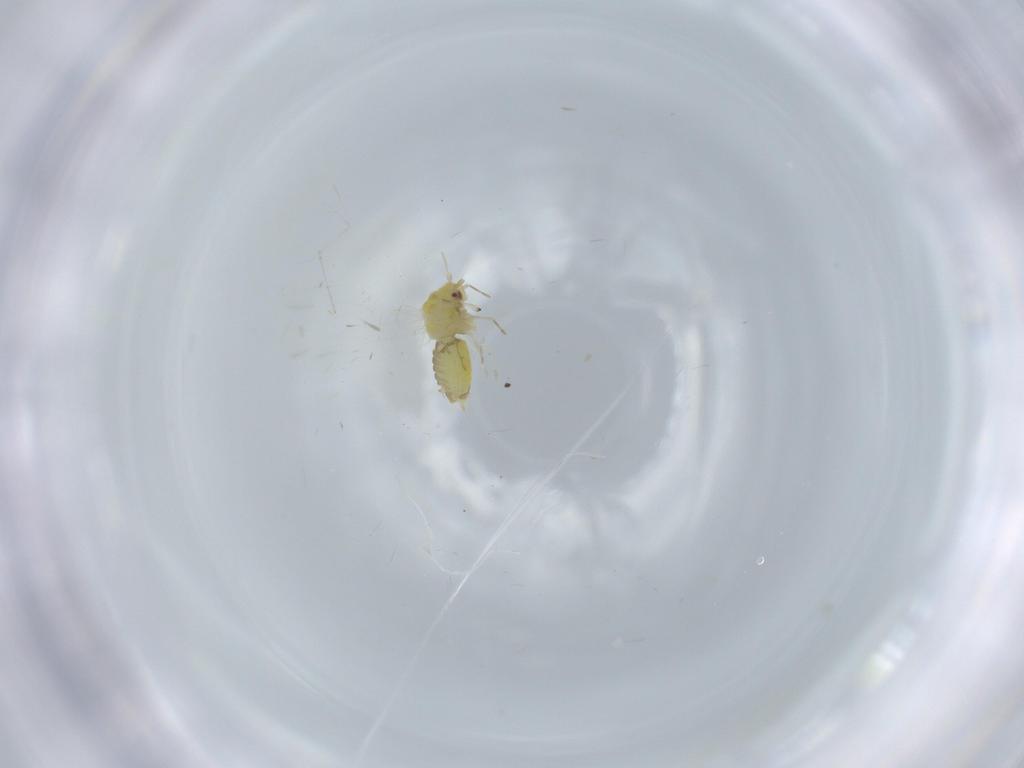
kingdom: Animalia
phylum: Arthropoda
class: Insecta
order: Hemiptera
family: Aleyrodidae
